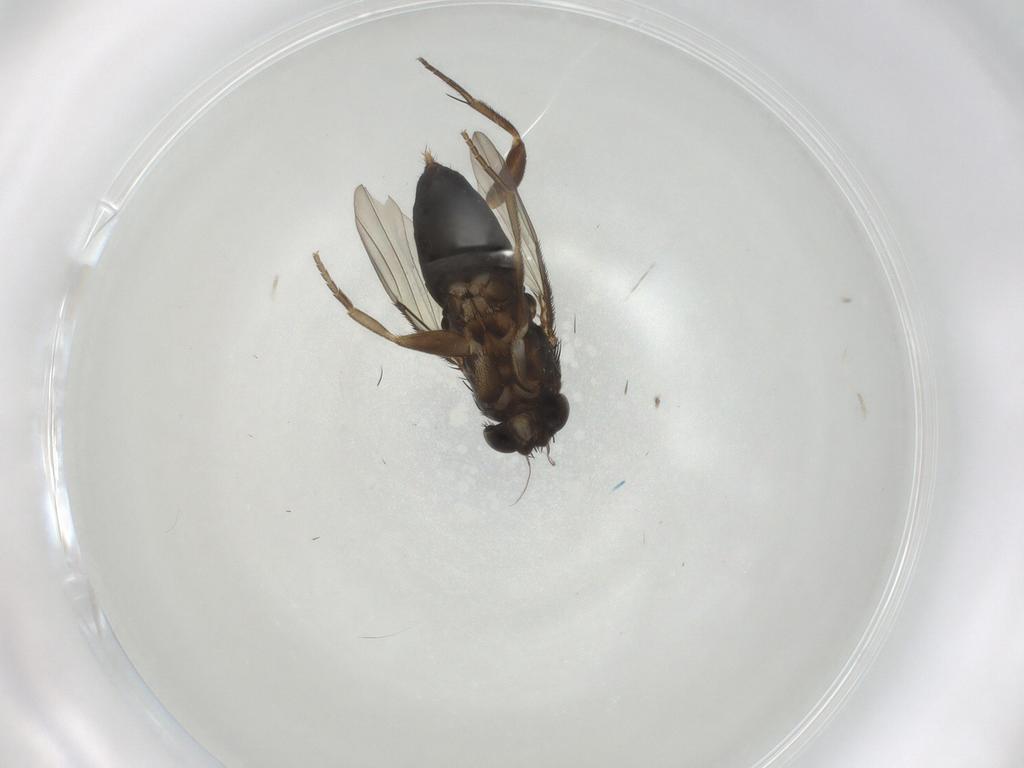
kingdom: Animalia
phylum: Arthropoda
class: Insecta
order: Diptera
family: Phoridae
